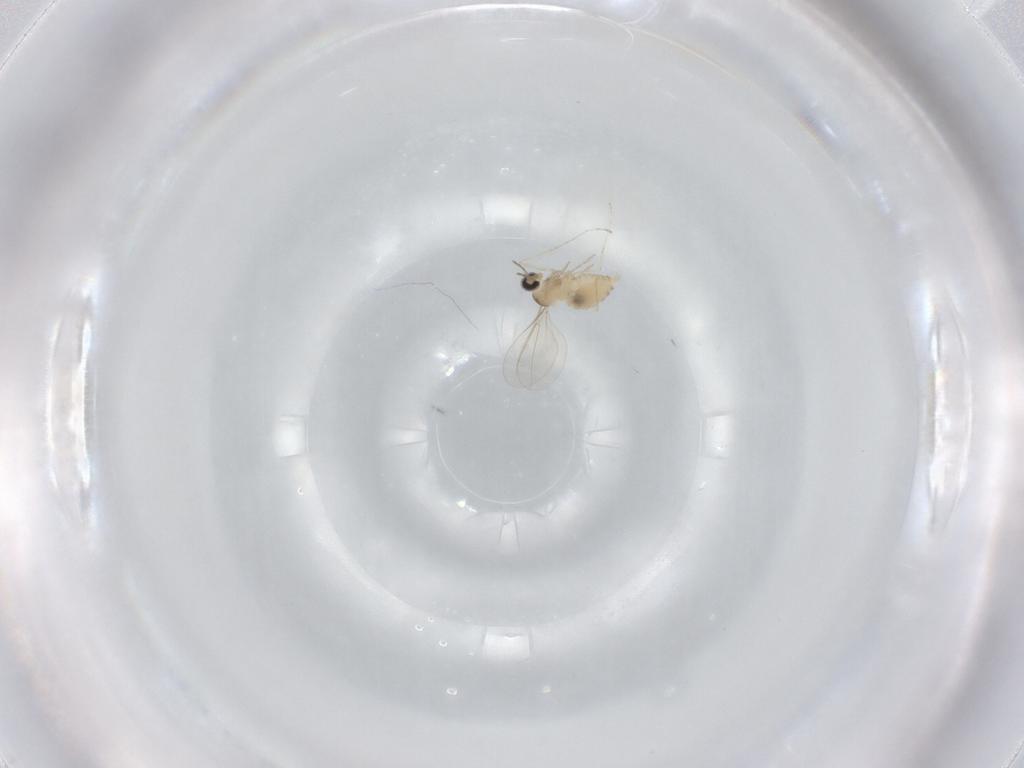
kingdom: Animalia
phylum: Arthropoda
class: Insecta
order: Diptera
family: Cecidomyiidae
